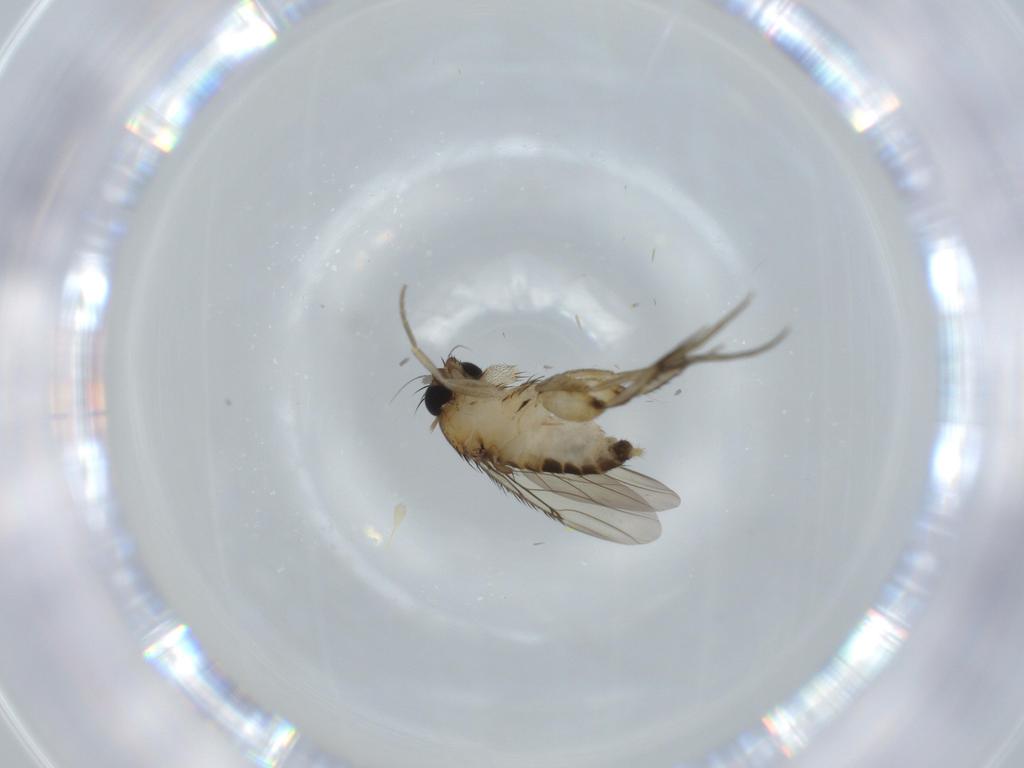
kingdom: Animalia
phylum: Arthropoda
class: Insecta
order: Diptera
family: Phoridae
